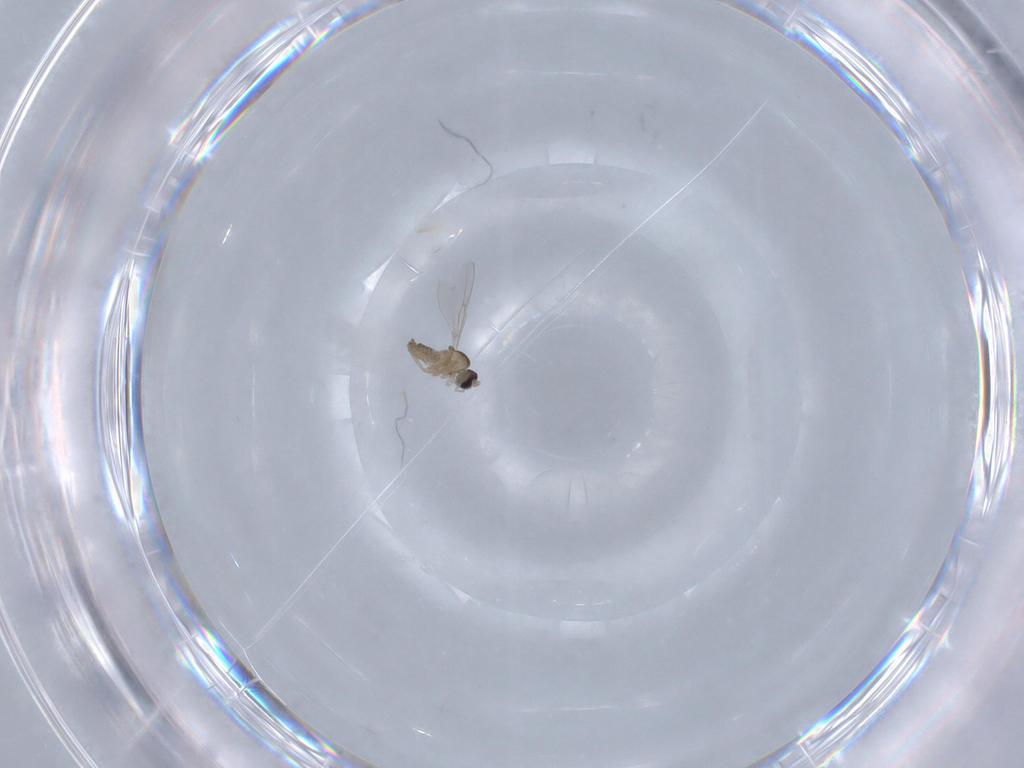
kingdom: Animalia
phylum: Arthropoda
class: Insecta
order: Diptera
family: Cecidomyiidae
